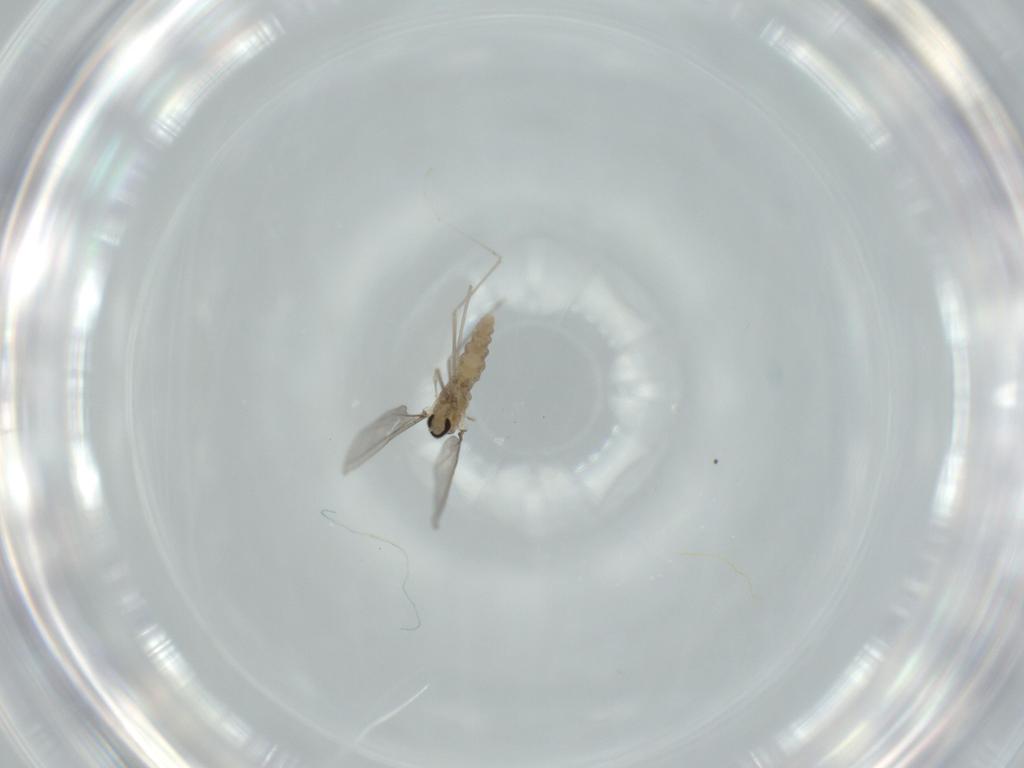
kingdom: Animalia
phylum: Arthropoda
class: Insecta
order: Diptera
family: Cecidomyiidae
